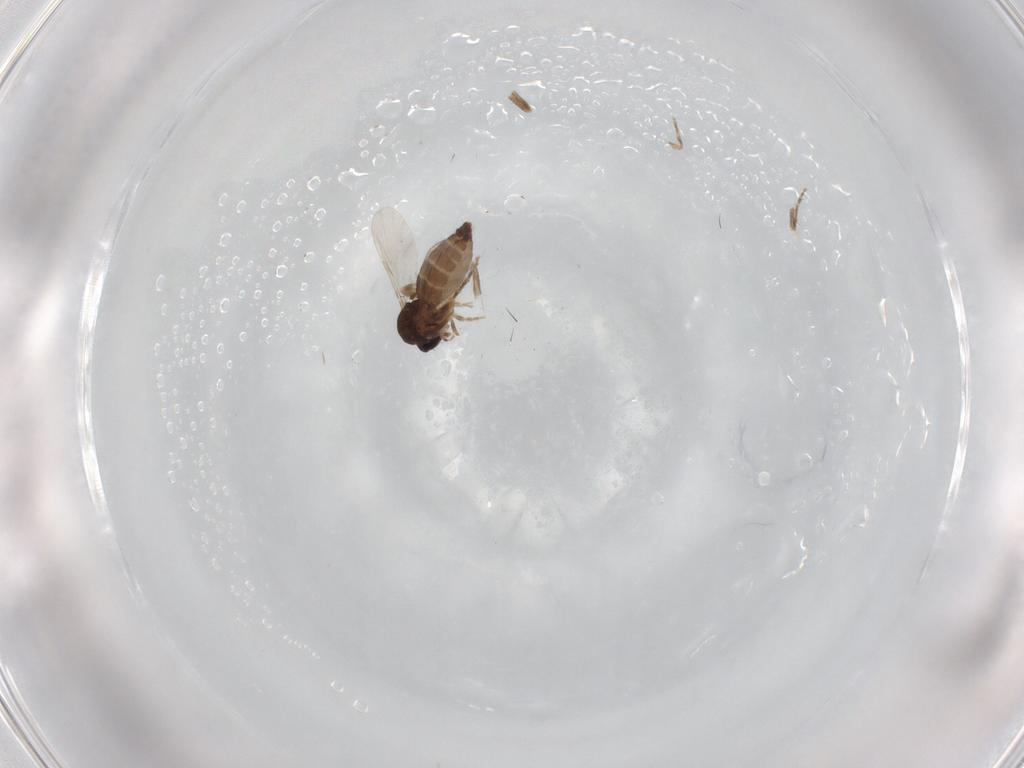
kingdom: Animalia
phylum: Arthropoda
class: Insecta
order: Diptera
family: Ceratopogonidae
